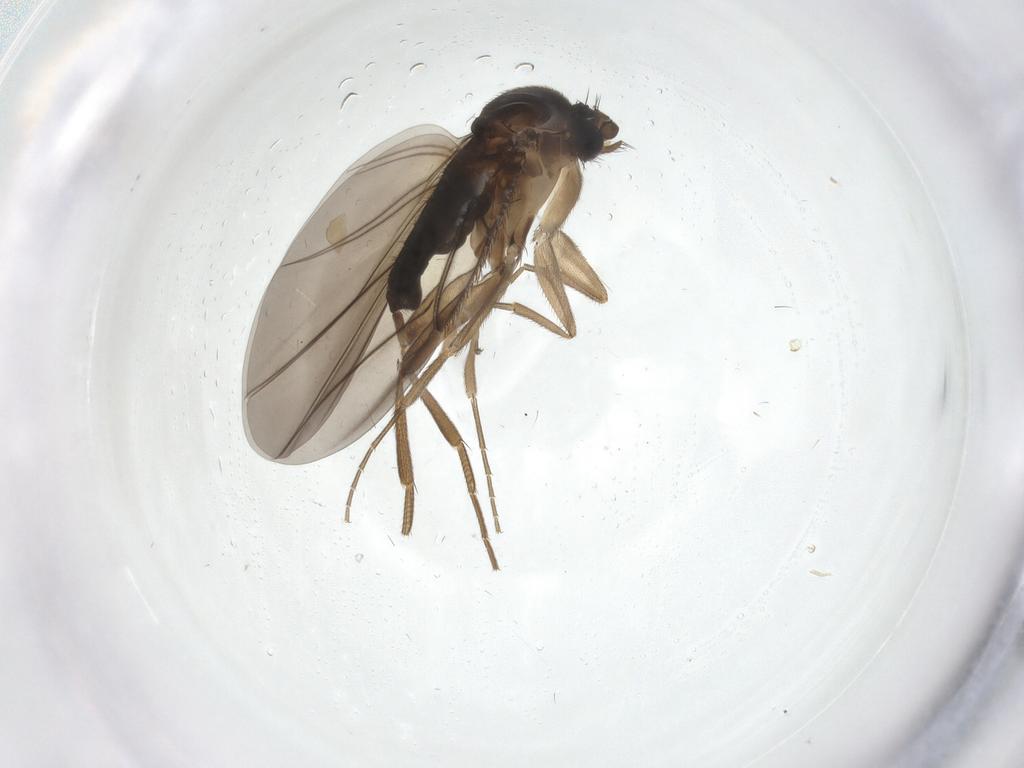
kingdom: Animalia
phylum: Arthropoda
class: Insecta
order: Diptera
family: Phoridae
